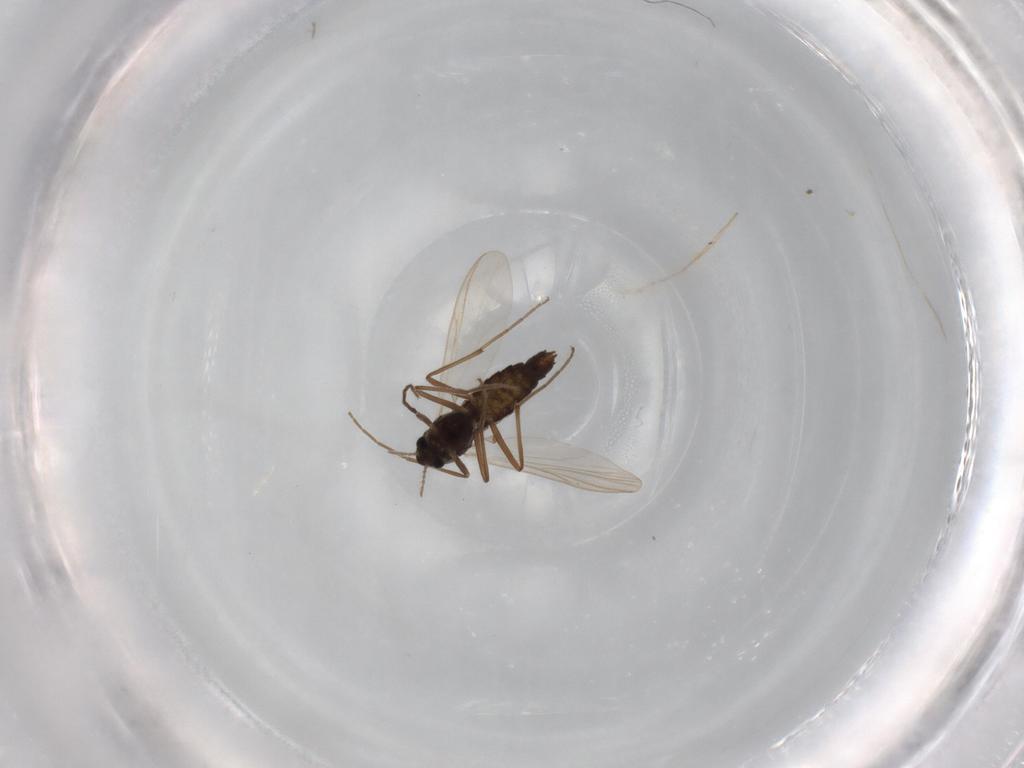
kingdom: Animalia
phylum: Arthropoda
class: Insecta
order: Diptera
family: Chironomidae
